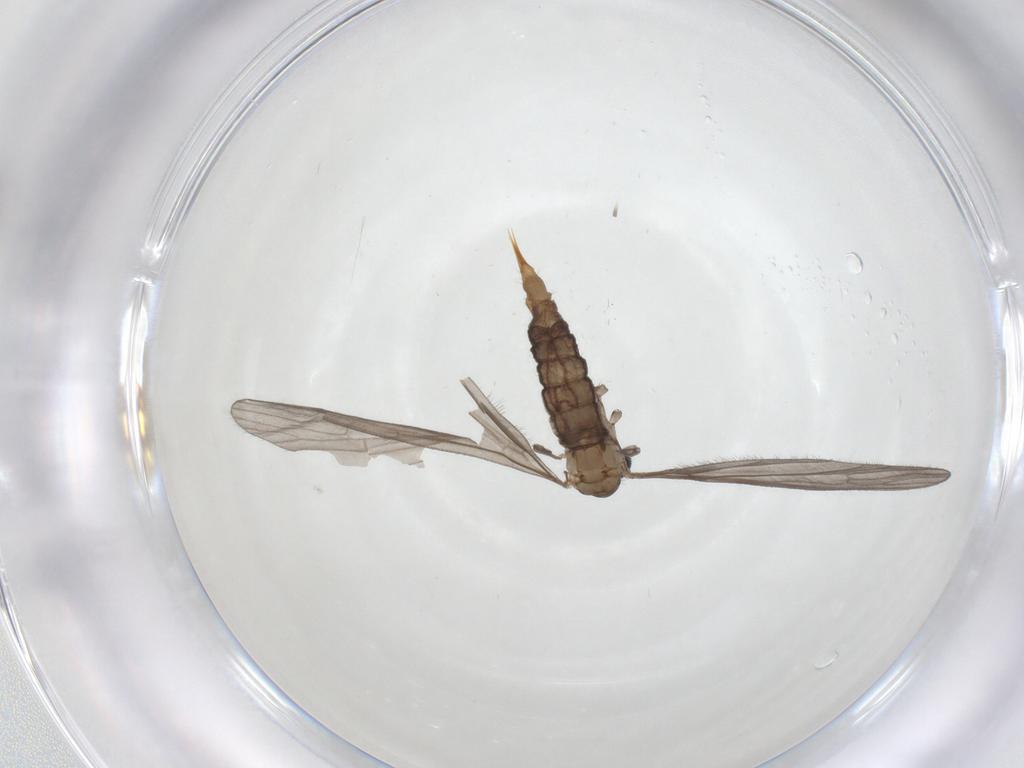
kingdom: Animalia
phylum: Arthropoda
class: Insecta
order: Diptera
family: Limoniidae
